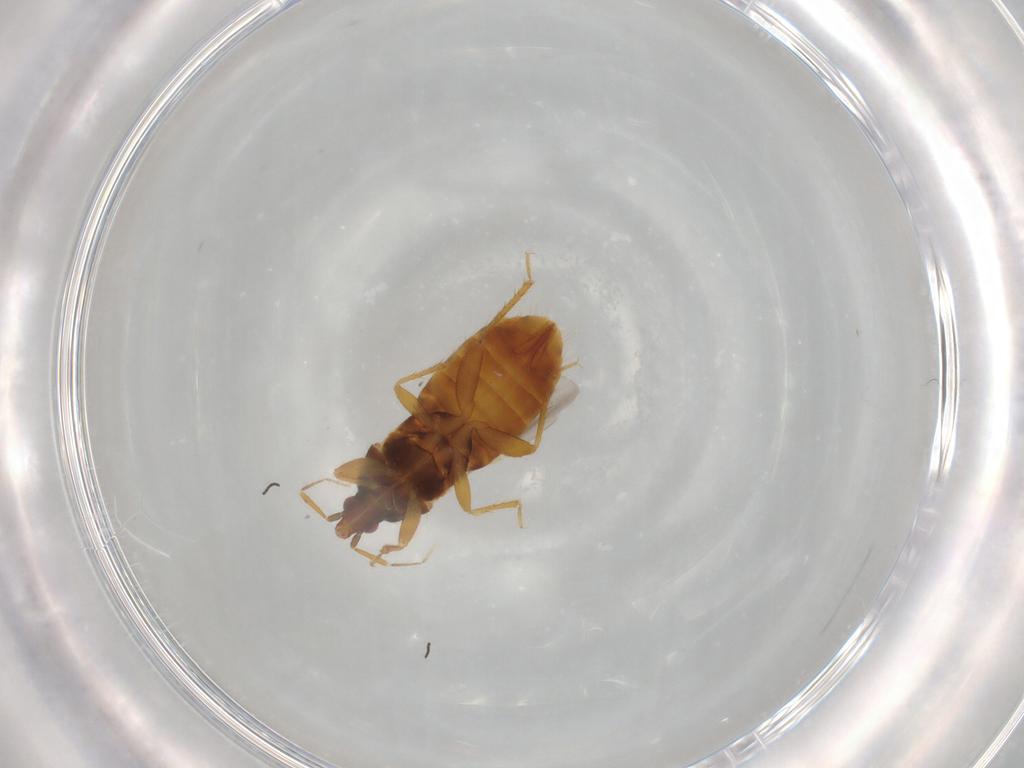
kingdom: Animalia
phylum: Arthropoda
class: Insecta
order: Hemiptera
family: Lasiochilidae
